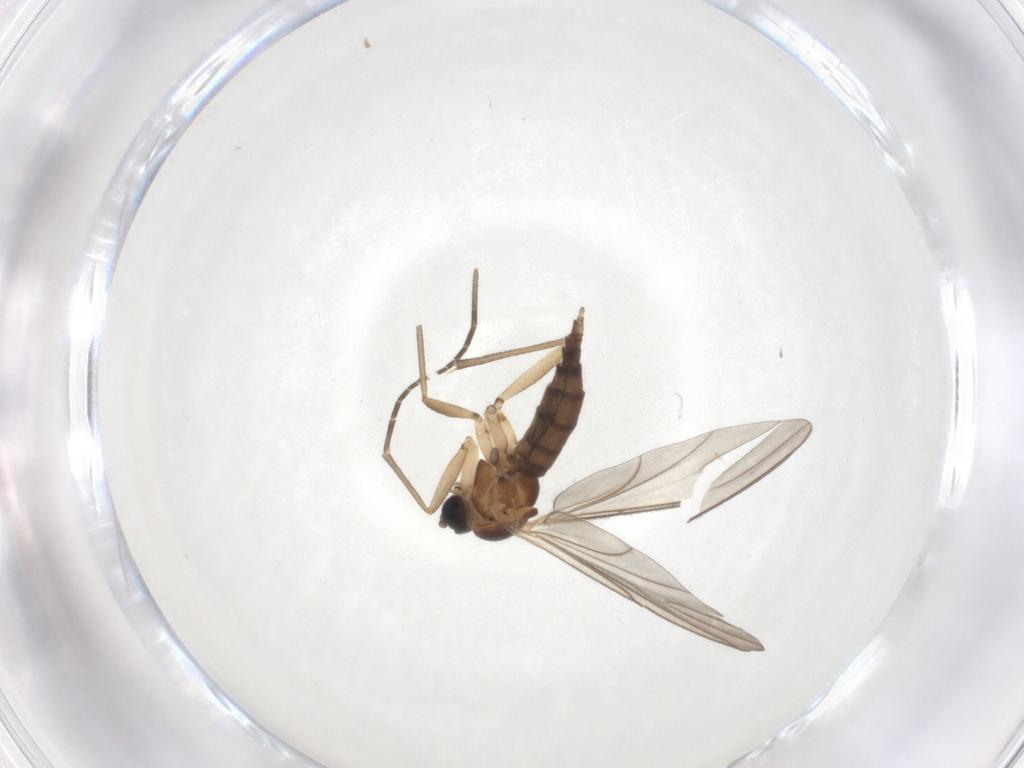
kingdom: Animalia
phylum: Arthropoda
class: Insecta
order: Diptera
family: Sciaridae
